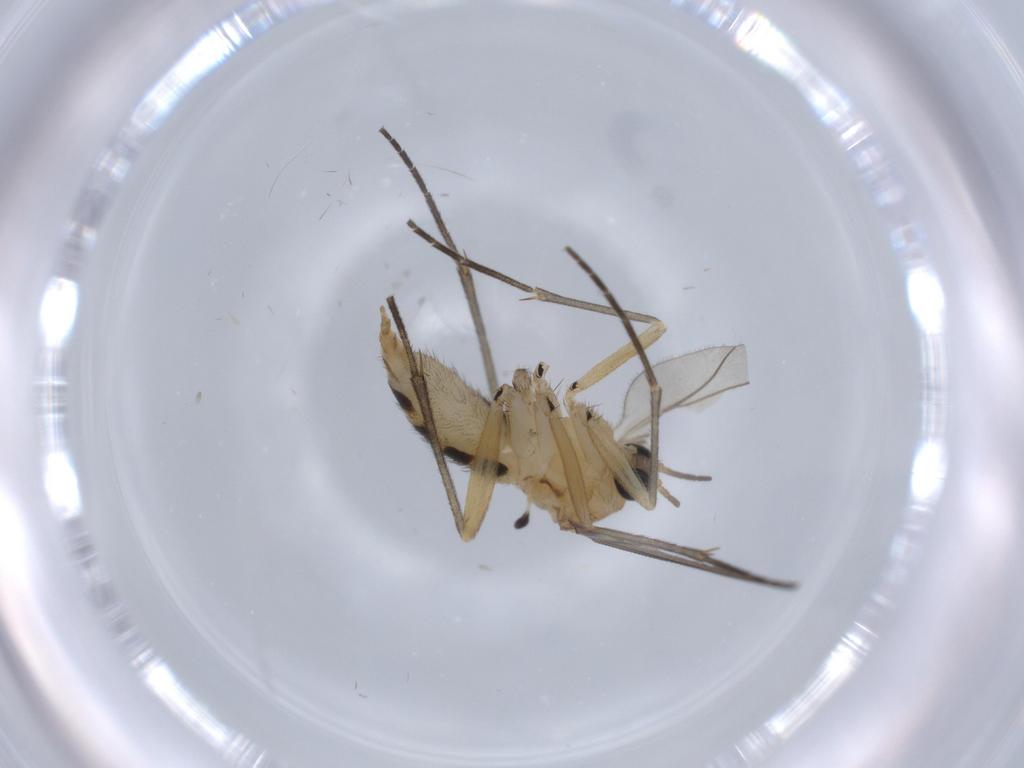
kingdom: Animalia
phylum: Arthropoda
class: Insecta
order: Diptera
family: Sciaridae
